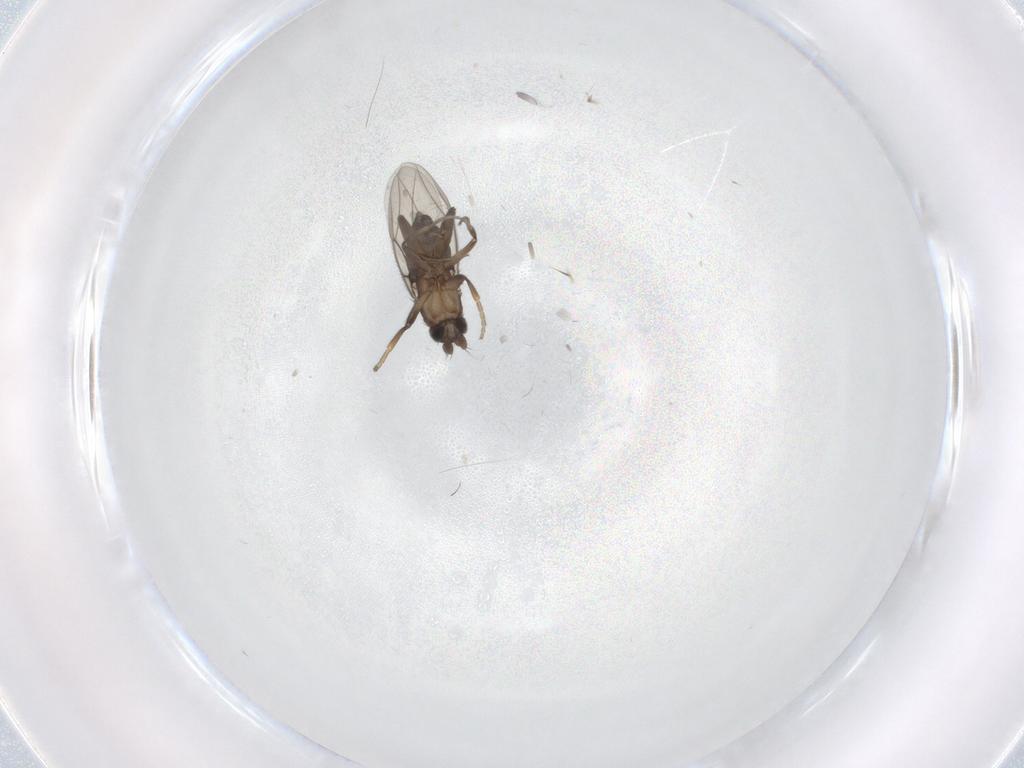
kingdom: Animalia
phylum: Arthropoda
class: Insecta
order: Diptera
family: Phoridae
